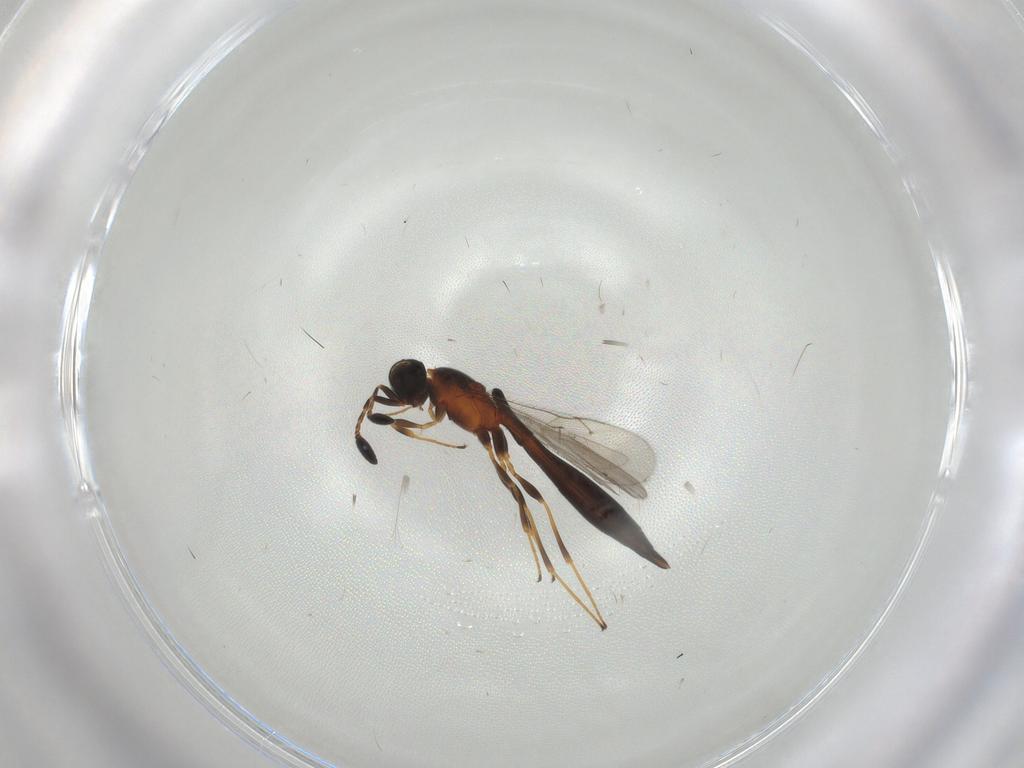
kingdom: Animalia
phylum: Arthropoda
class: Insecta
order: Hymenoptera
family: Scelionidae
